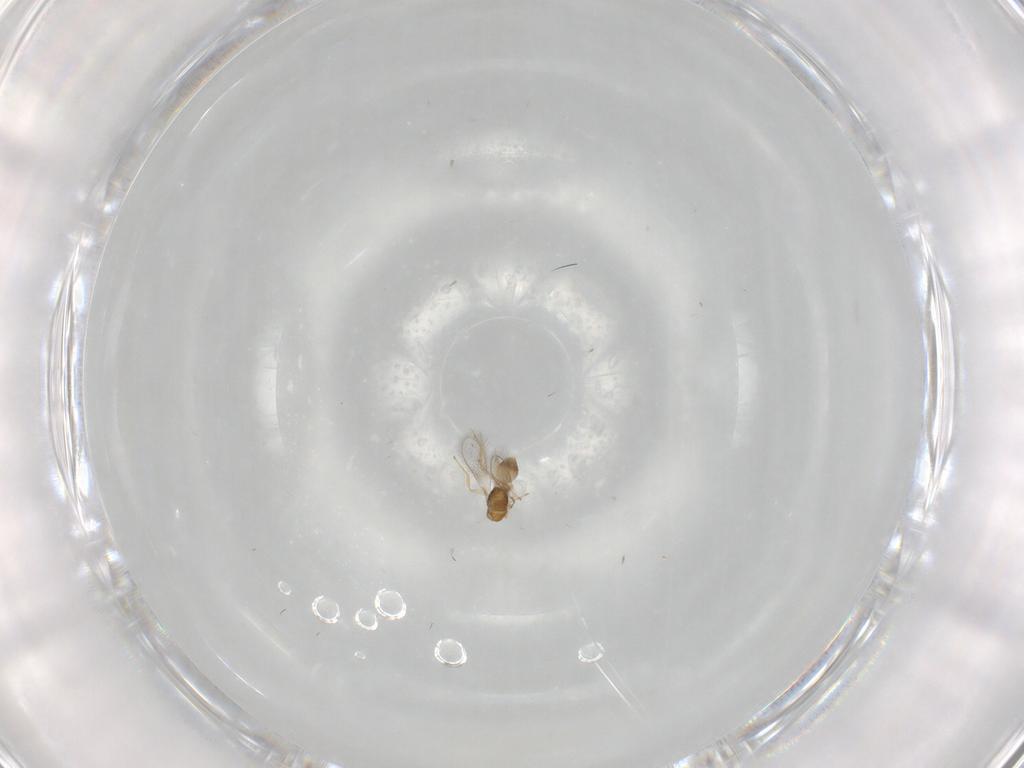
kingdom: Animalia
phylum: Arthropoda
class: Insecta
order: Hymenoptera
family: Mymaridae
